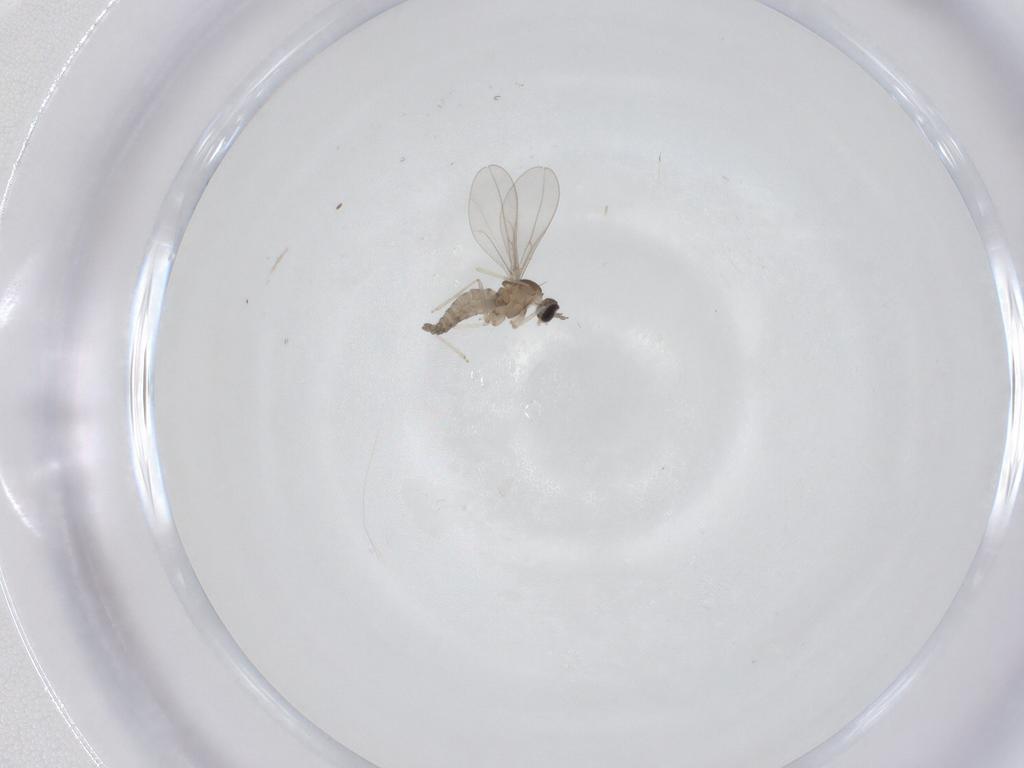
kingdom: Animalia
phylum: Arthropoda
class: Insecta
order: Diptera
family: Cecidomyiidae
